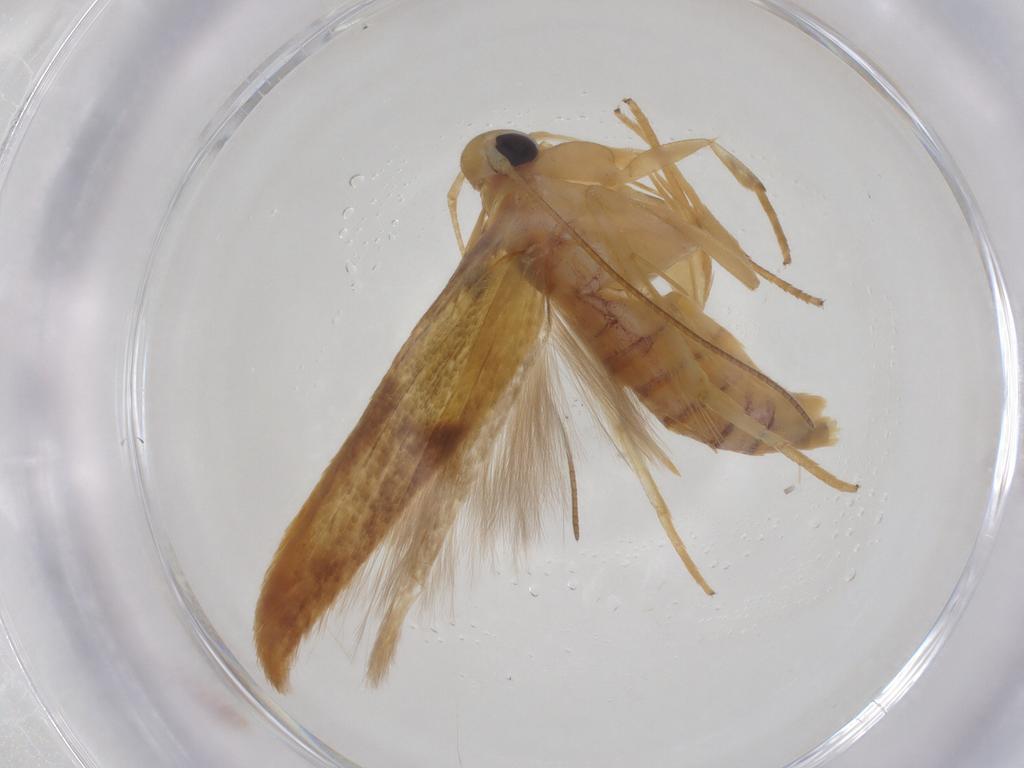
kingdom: Animalia
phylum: Arthropoda
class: Insecta
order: Lepidoptera
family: Stathmopodidae
